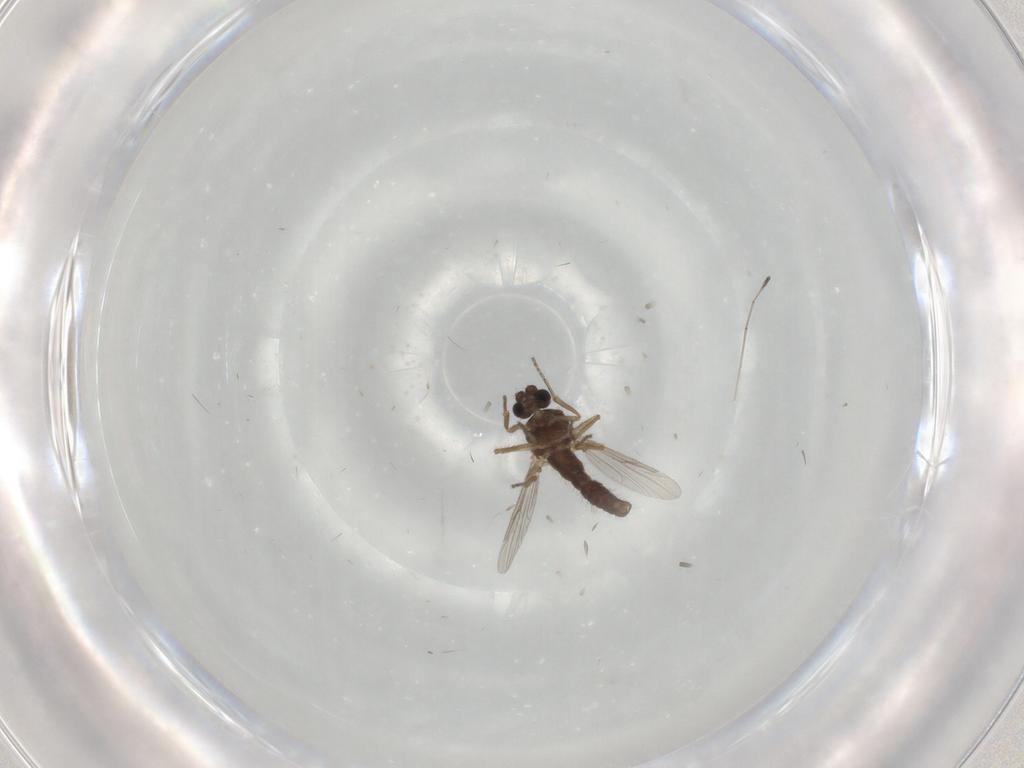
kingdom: Animalia
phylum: Arthropoda
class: Insecta
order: Diptera
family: Ceratopogonidae
